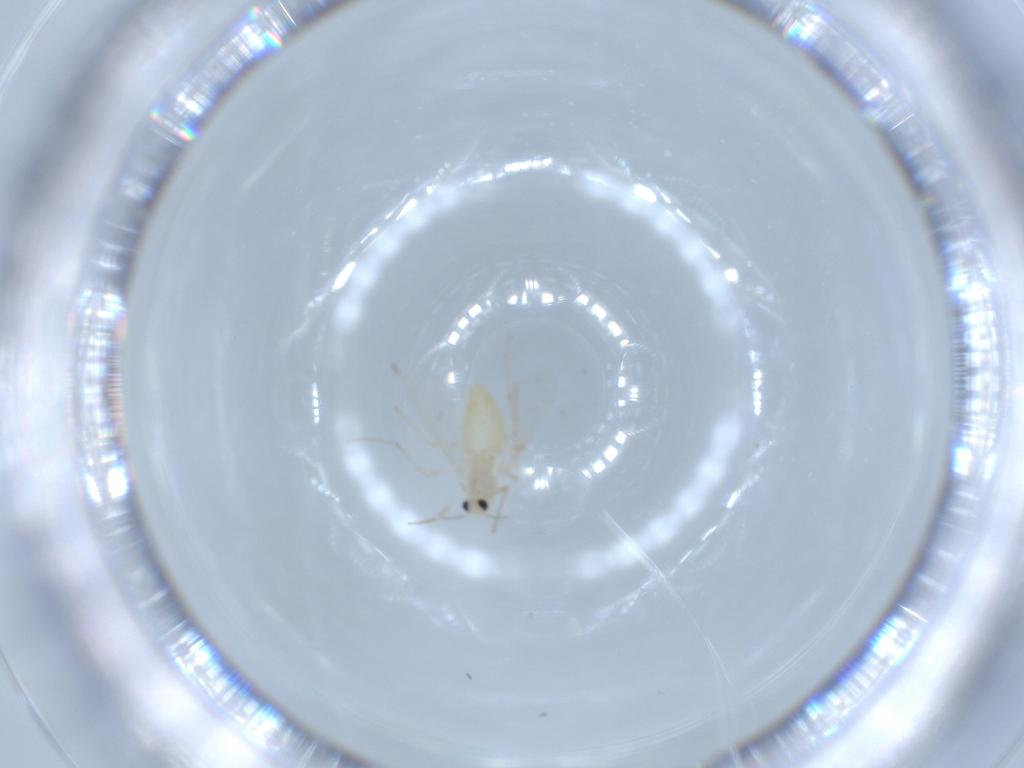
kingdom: Animalia
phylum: Arthropoda
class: Insecta
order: Diptera
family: Chironomidae
